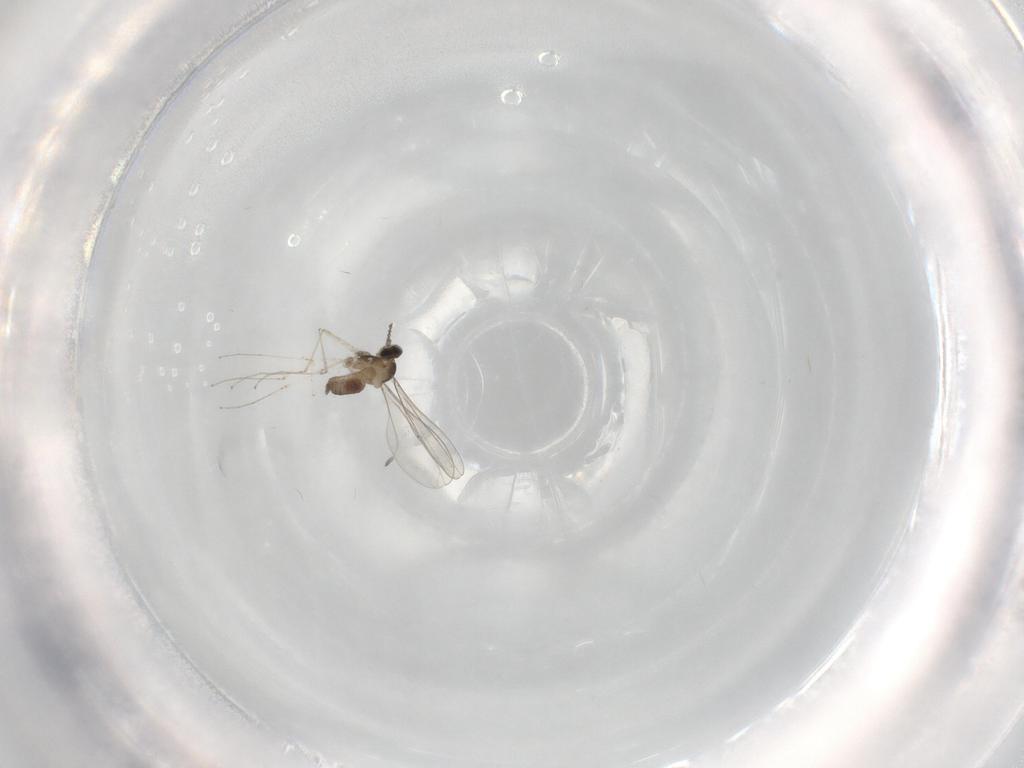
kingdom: Animalia
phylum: Arthropoda
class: Insecta
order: Diptera
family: Cecidomyiidae
